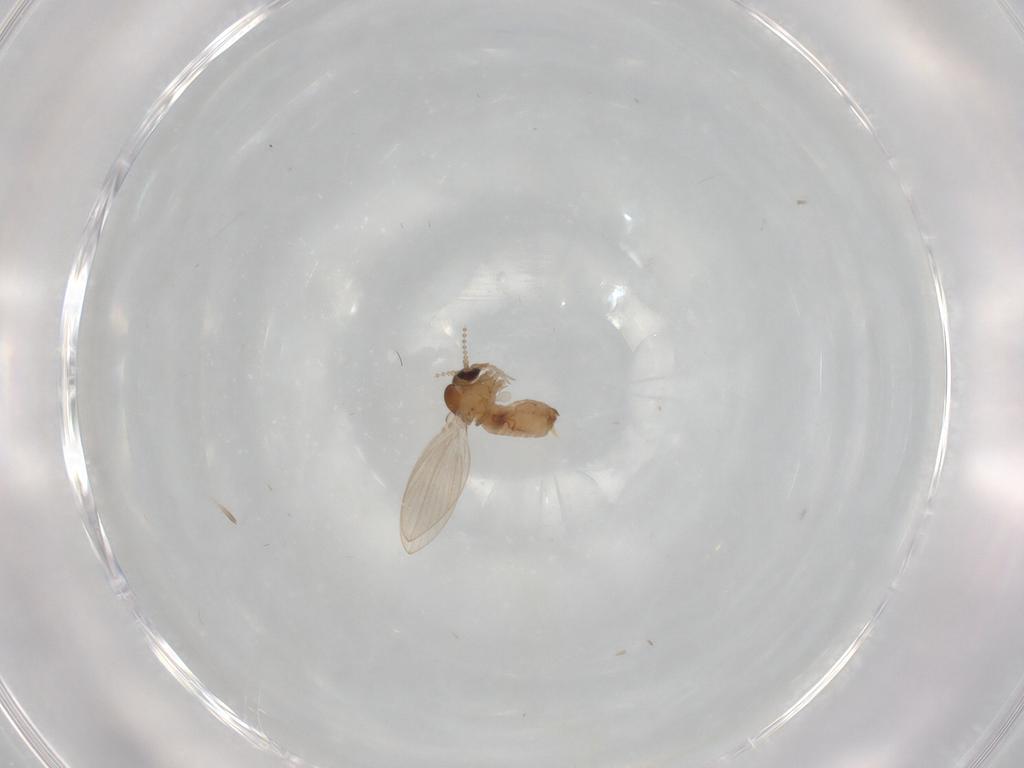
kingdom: Animalia
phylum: Arthropoda
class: Insecta
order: Diptera
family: Psychodidae
